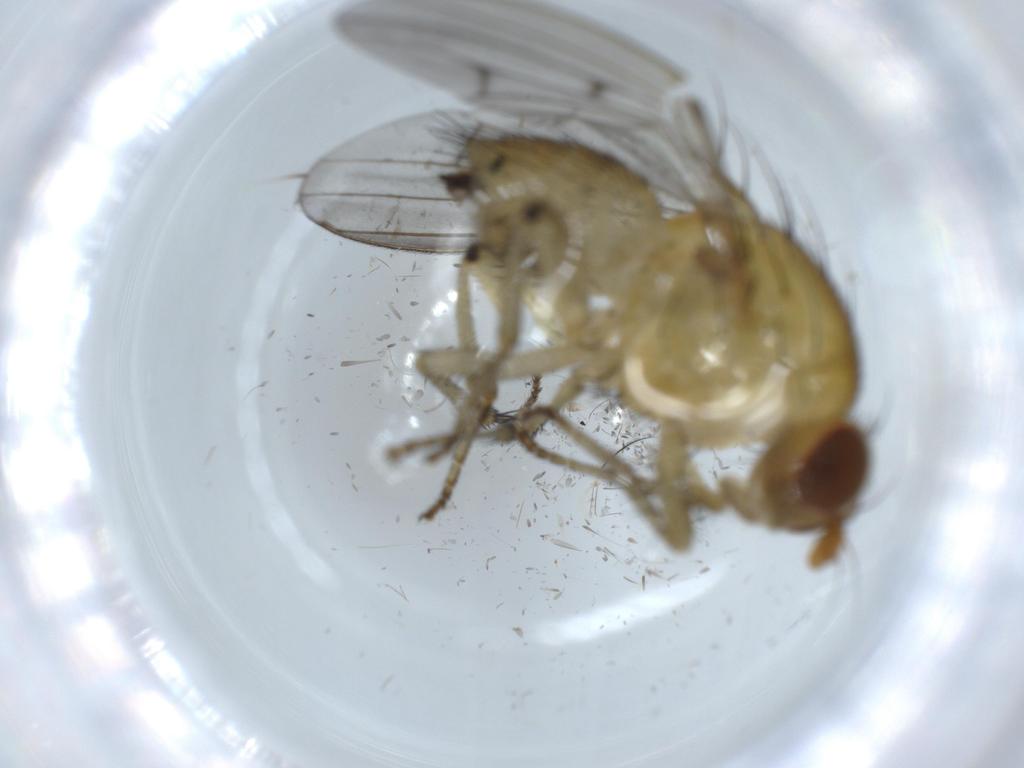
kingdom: Animalia
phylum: Arthropoda
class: Insecta
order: Diptera
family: Lauxaniidae
